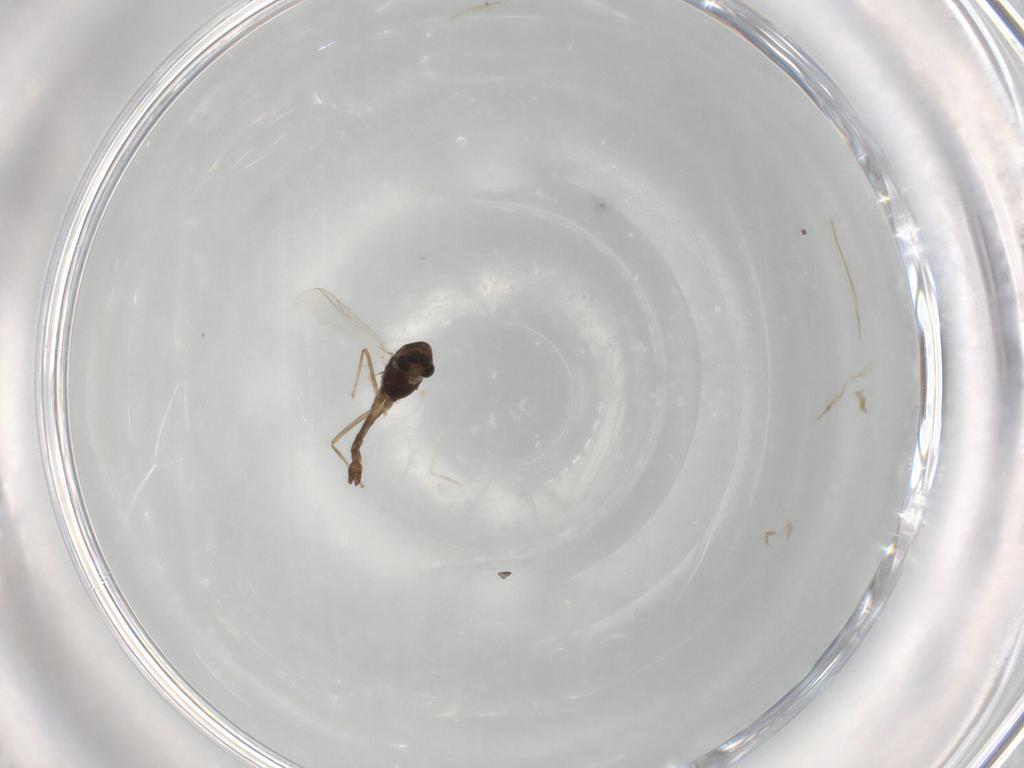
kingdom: Animalia
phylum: Arthropoda
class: Insecta
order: Diptera
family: Chironomidae
